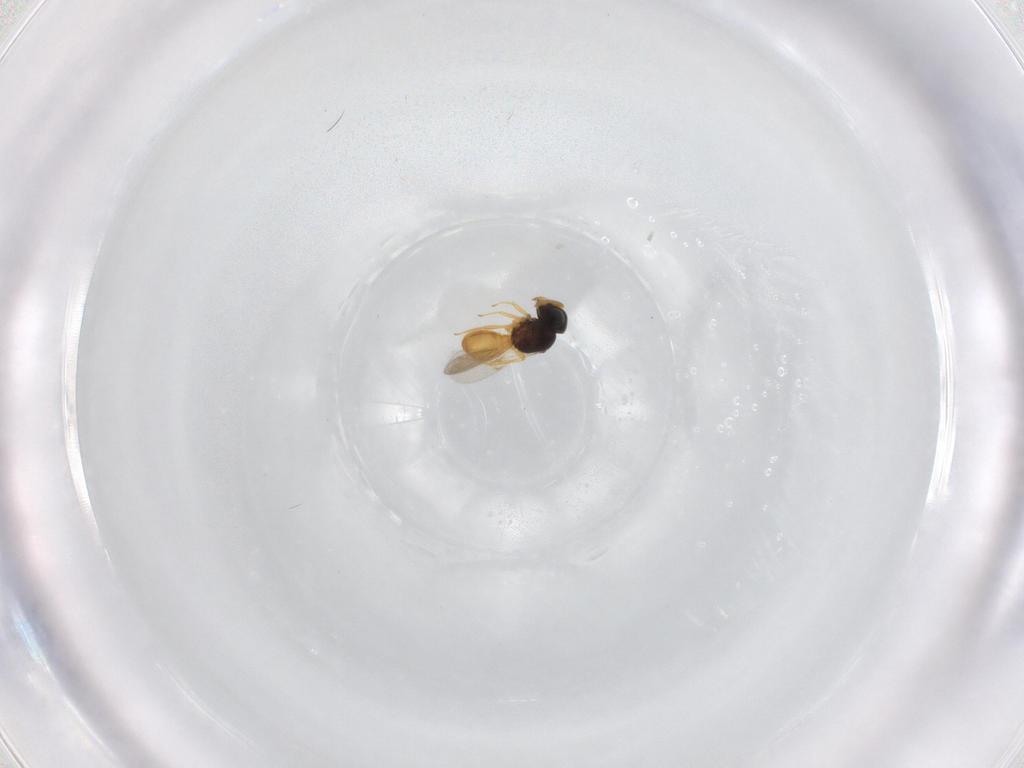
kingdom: Animalia
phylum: Arthropoda
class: Insecta
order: Hymenoptera
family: Scelionidae
